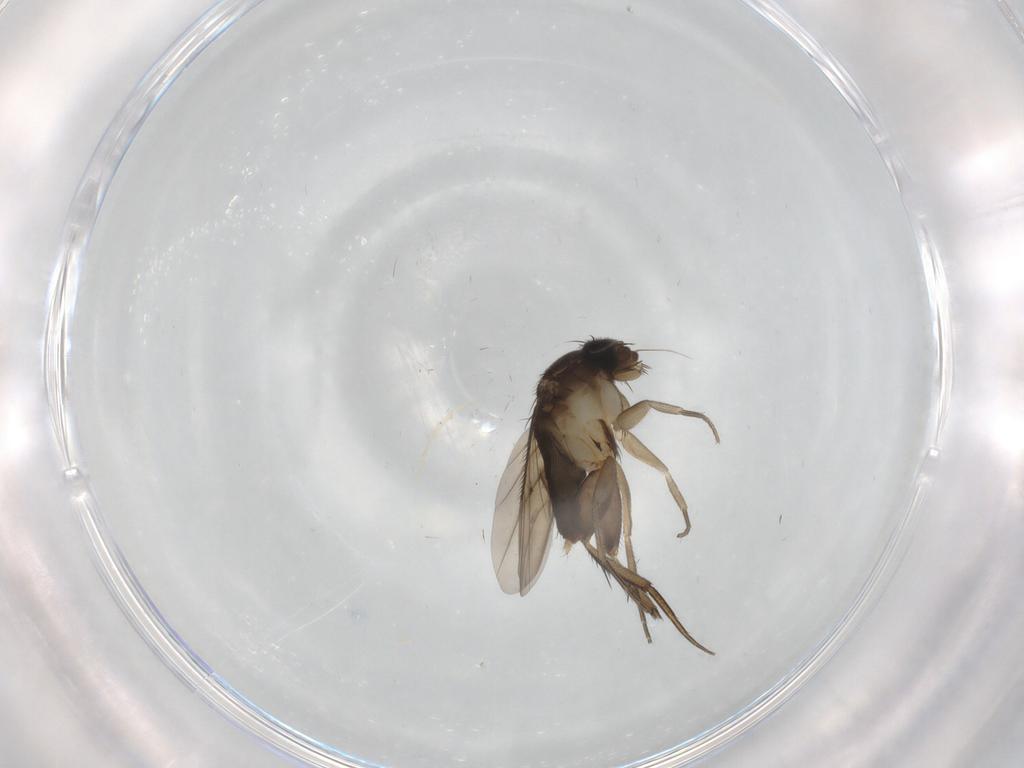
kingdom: Animalia
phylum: Arthropoda
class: Insecta
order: Diptera
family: Phoridae
